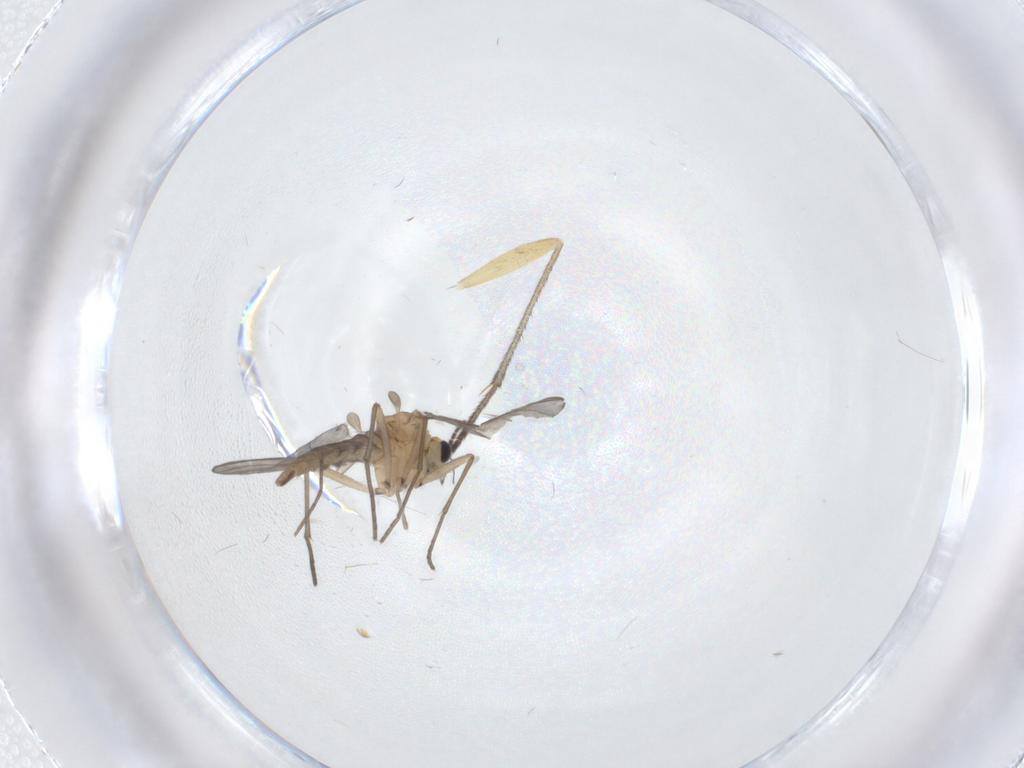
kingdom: Animalia
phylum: Arthropoda
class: Insecta
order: Diptera
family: Sciaridae
